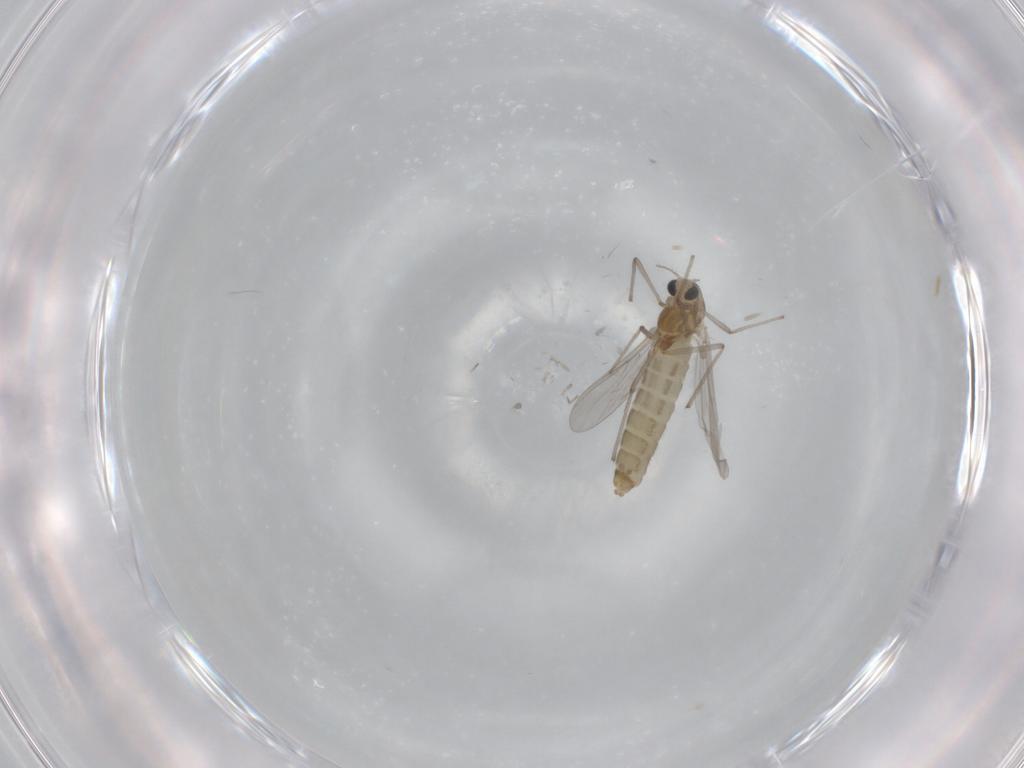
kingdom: Animalia
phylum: Arthropoda
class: Insecta
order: Diptera
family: Chironomidae
